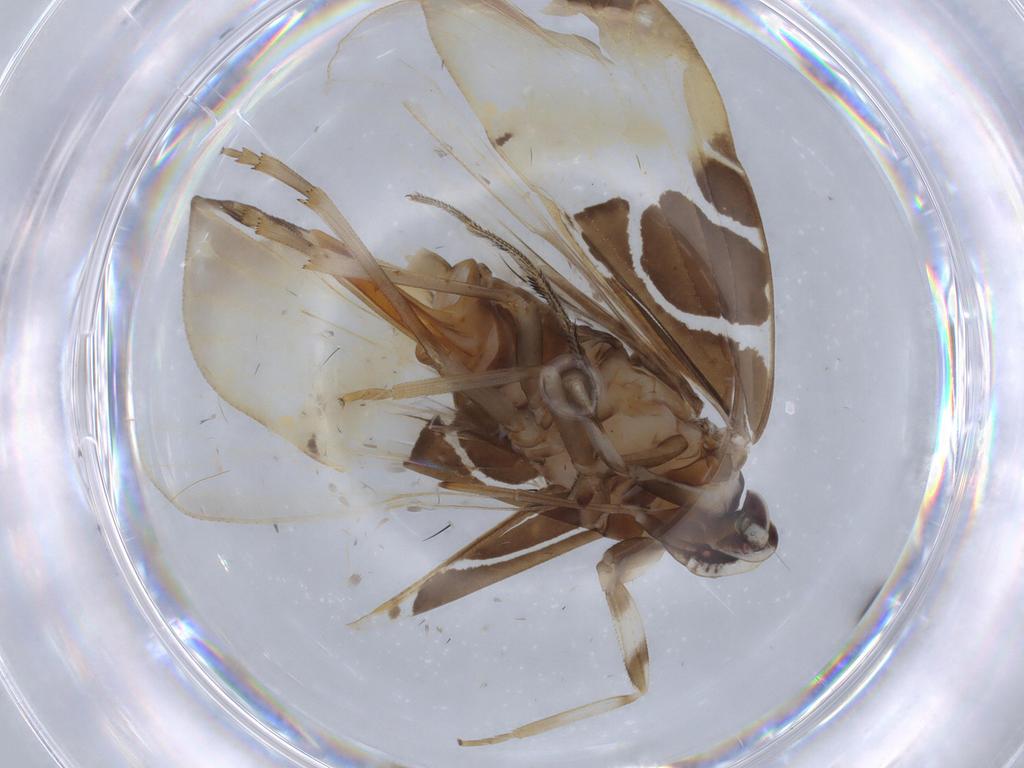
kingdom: Animalia
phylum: Arthropoda
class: Insecta
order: Hemiptera
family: Cixiidae
